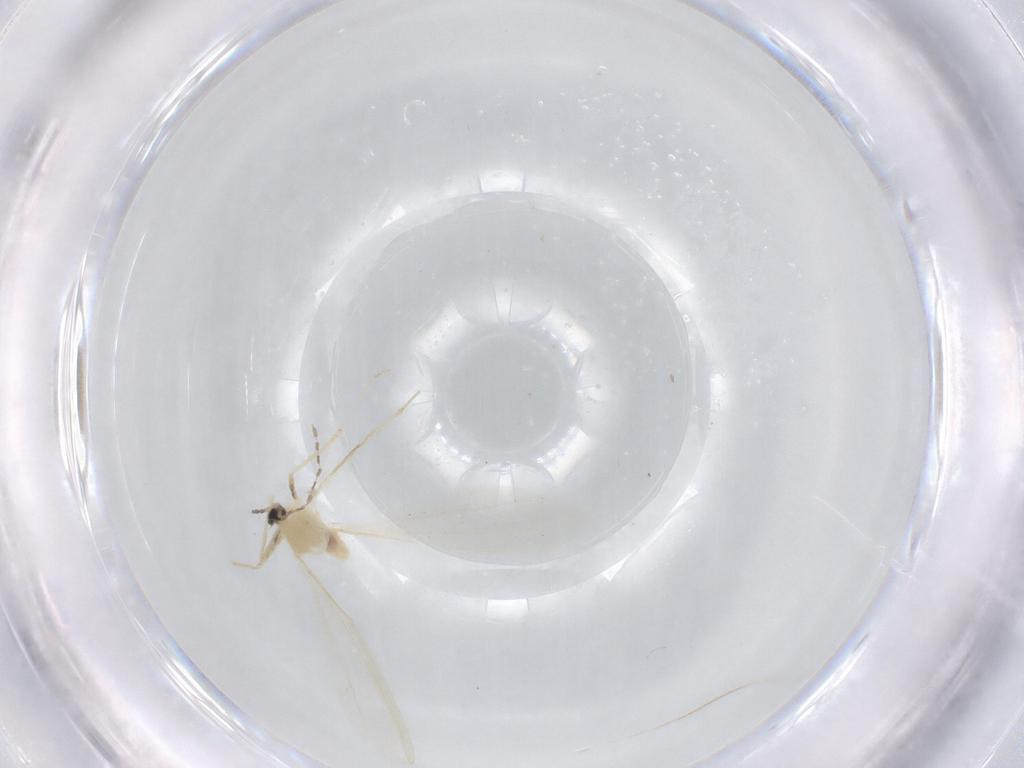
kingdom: Animalia
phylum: Arthropoda
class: Insecta
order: Diptera
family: Cecidomyiidae
